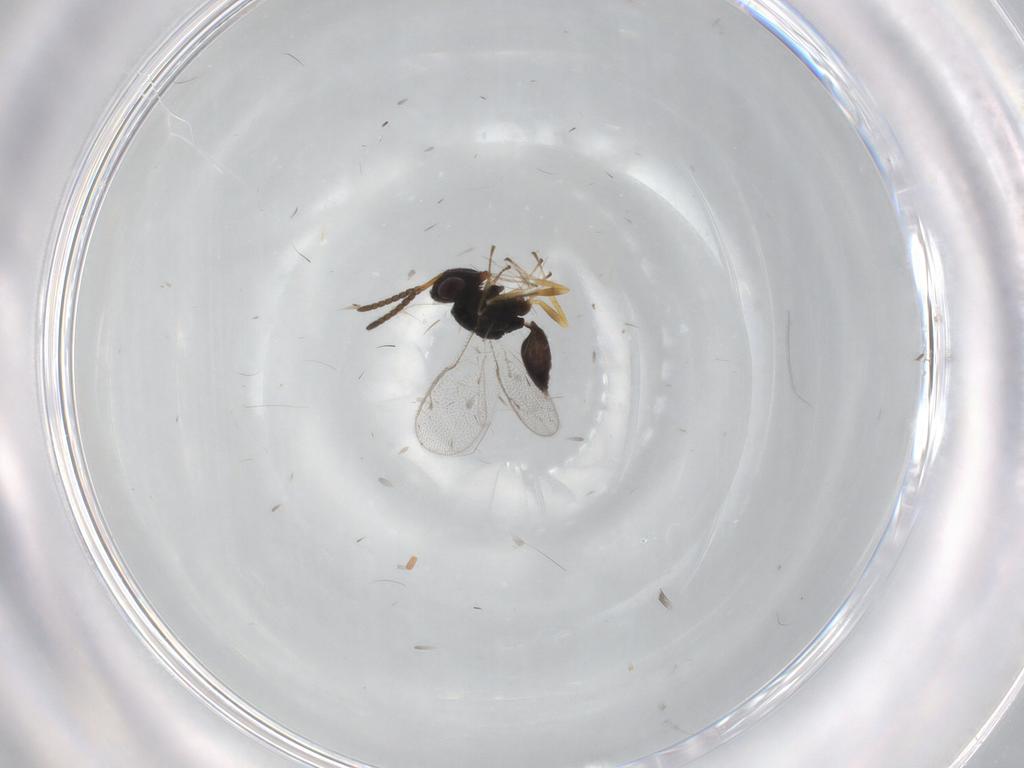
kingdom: Animalia
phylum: Arthropoda
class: Insecta
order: Hymenoptera
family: Pteromalidae
